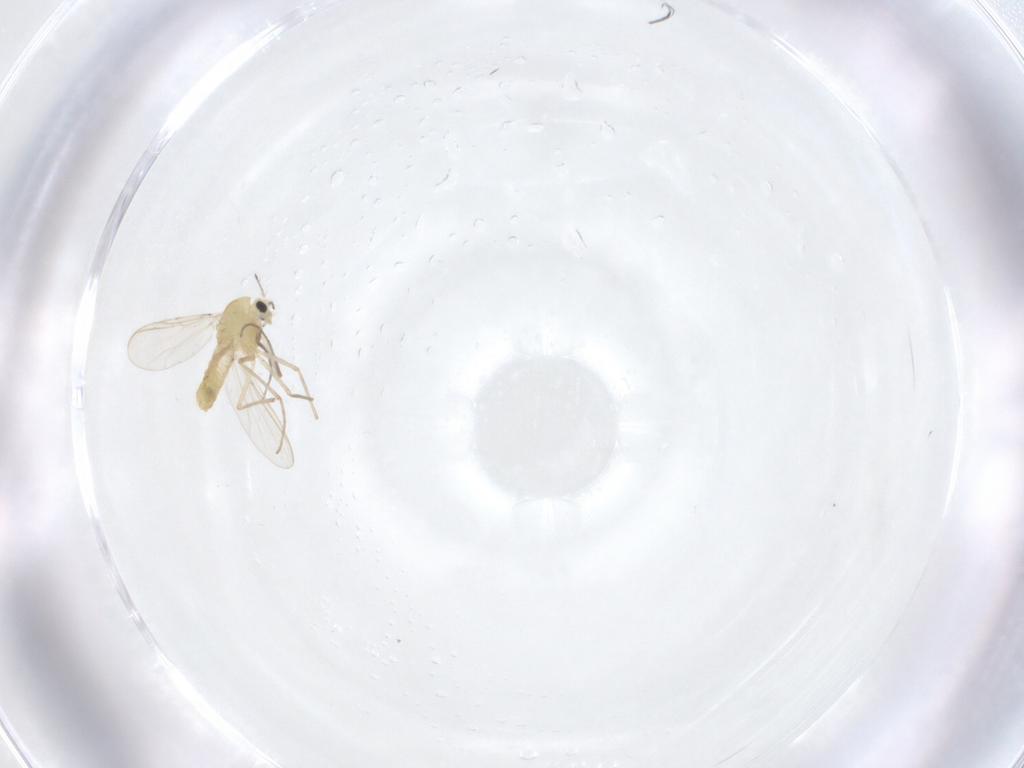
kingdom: Animalia
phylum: Arthropoda
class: Insecta
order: Diptera
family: Chironomidae
